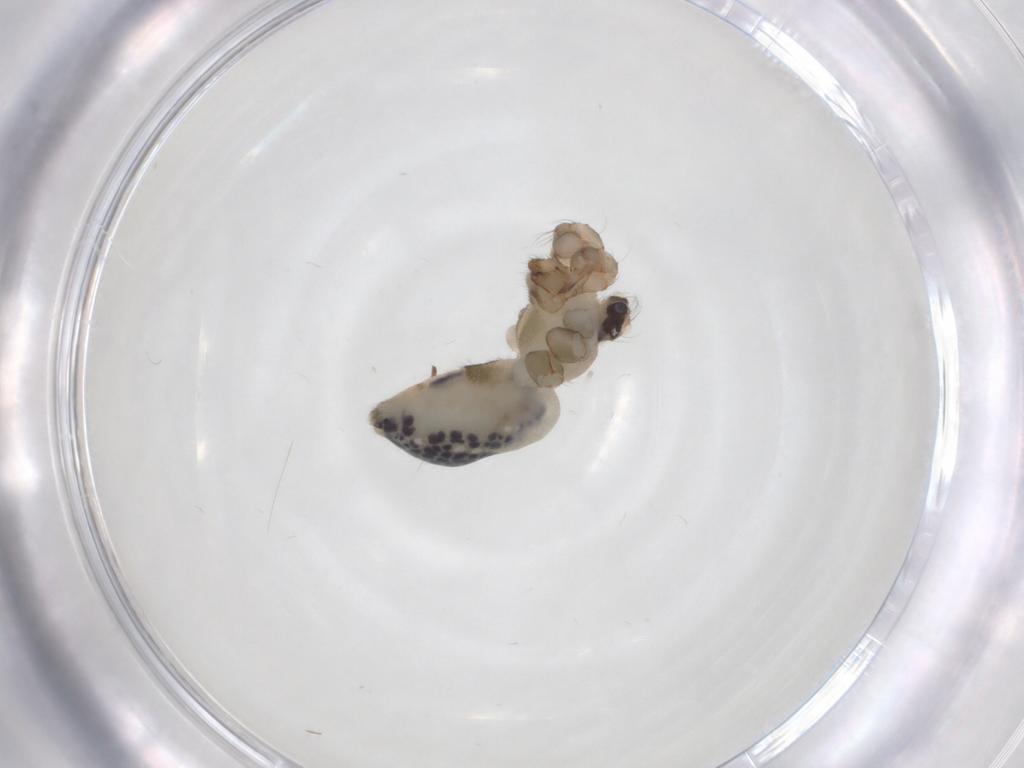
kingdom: Animalia
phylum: Arthropoda
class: Arachnida
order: Araneae
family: Pholcidae
